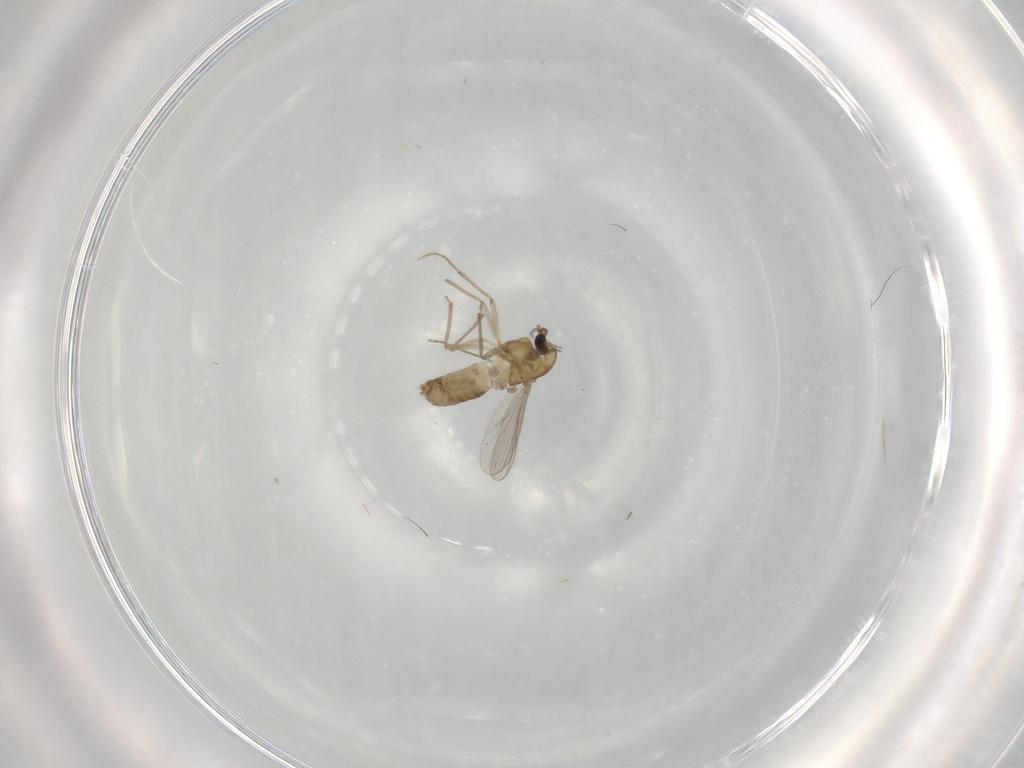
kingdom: Animalia
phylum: Arthropoda
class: Insecta
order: Diptera
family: Chironomidae
